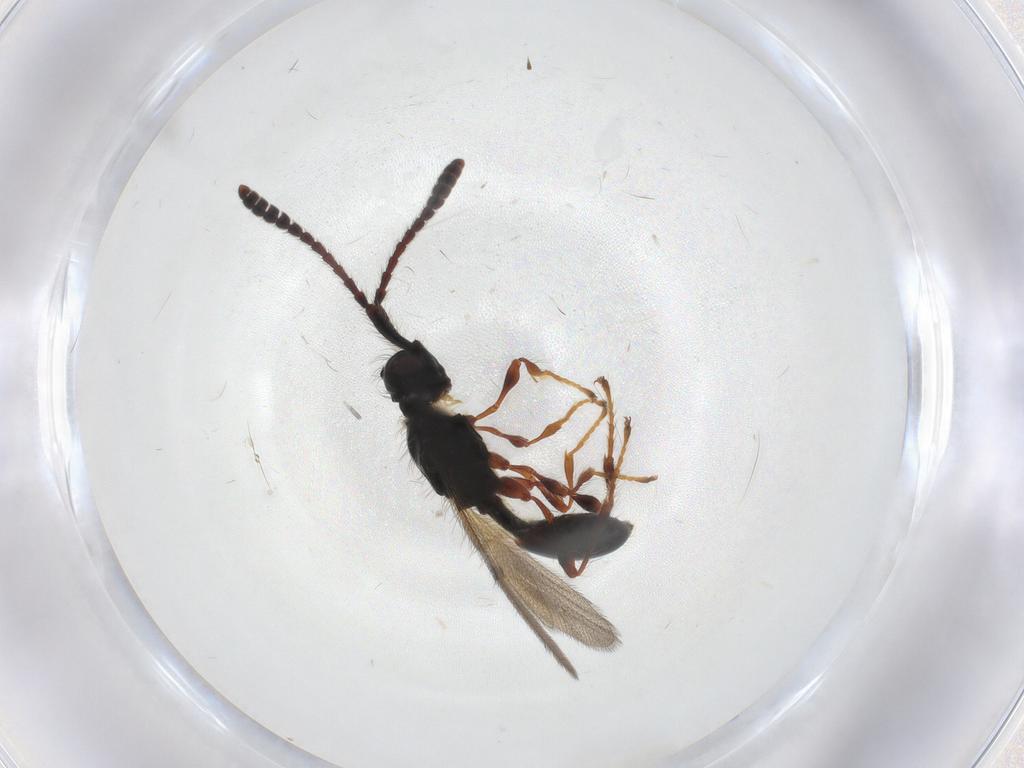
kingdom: Animalia
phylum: Arthropoda
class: Insecta
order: Hymenoptera
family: Diapriidae
